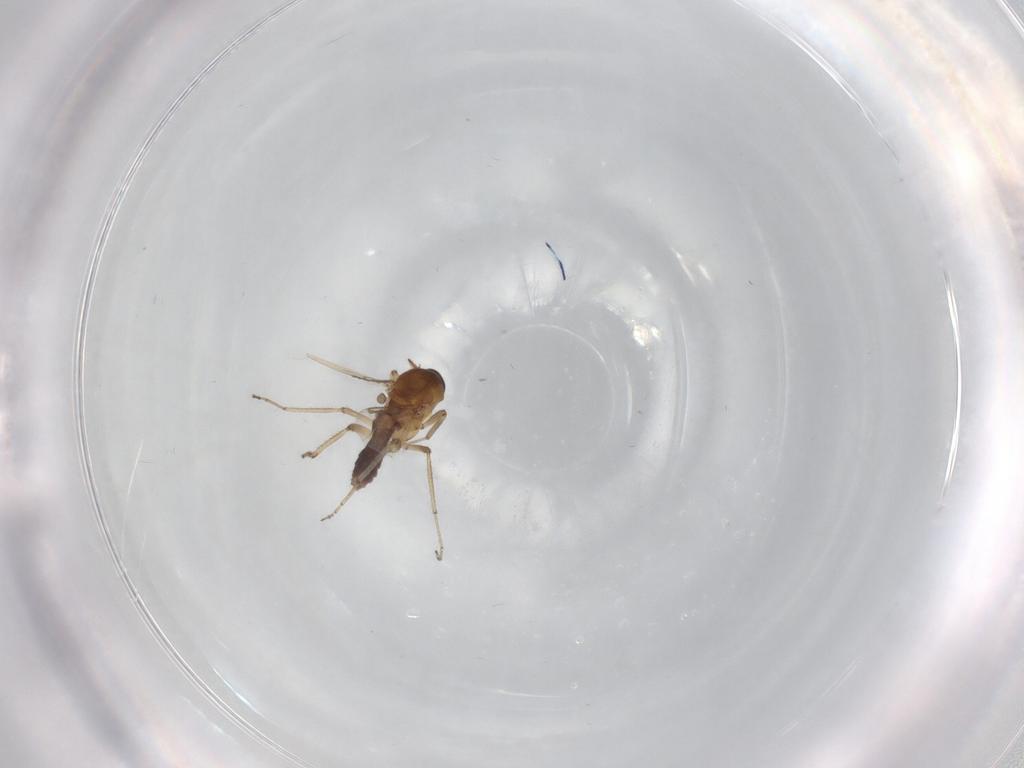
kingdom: Animalia
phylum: Arthropoda
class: Insecta
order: Diptera
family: Ceratopogonidae
